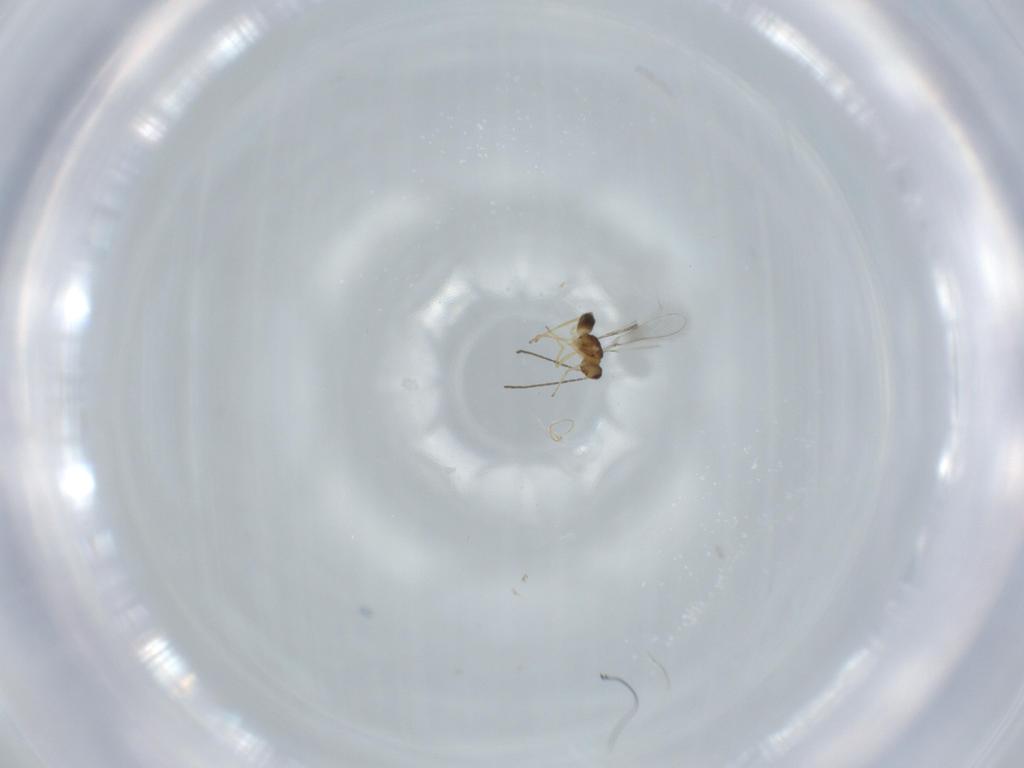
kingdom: Animalia
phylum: Arthropoda
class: Insecta
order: Hymenoptera
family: Mymaridae
